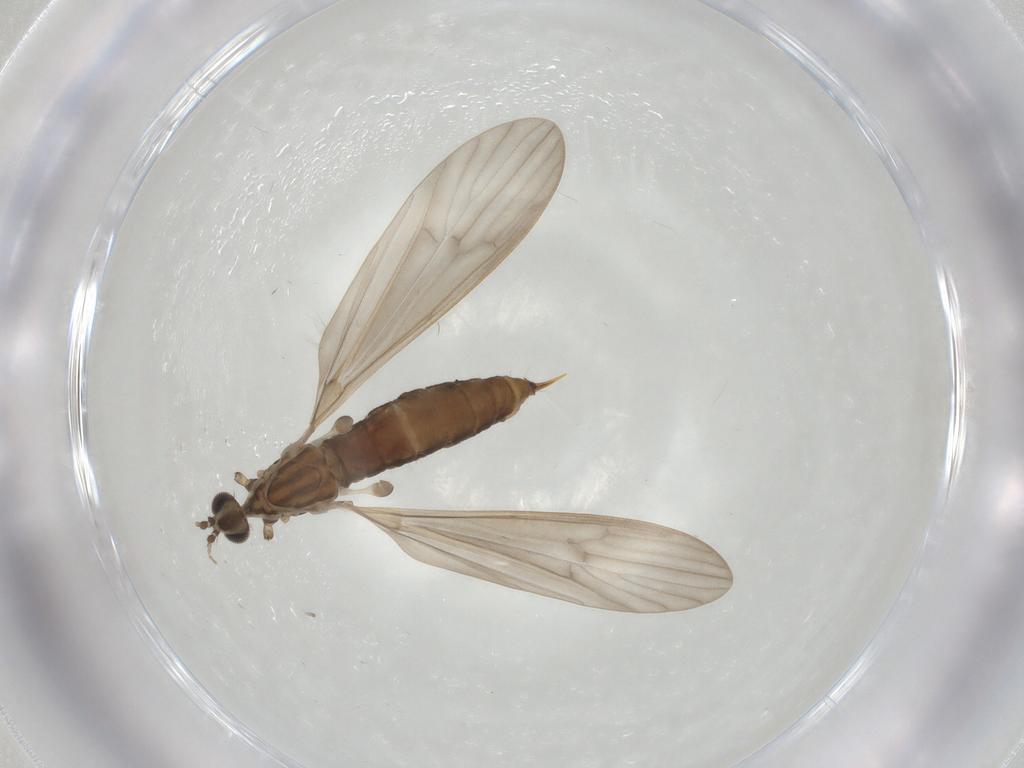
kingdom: Animalia
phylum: Arthropoda
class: Insecta
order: Diptera
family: Limoniidae
